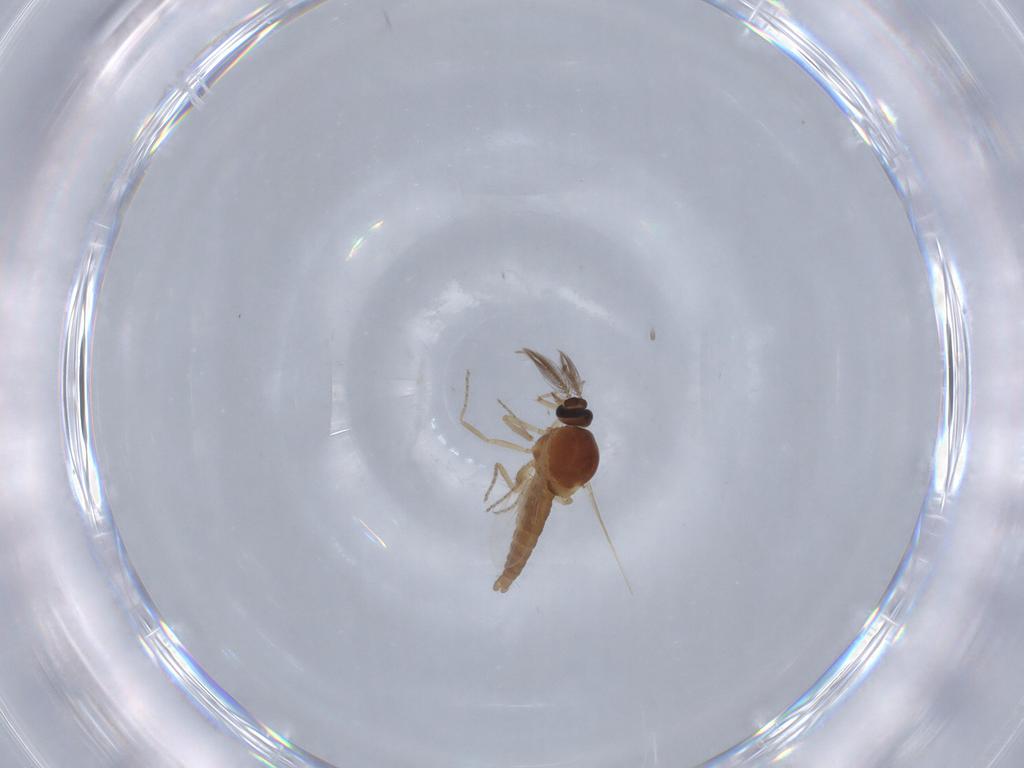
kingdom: Animalia
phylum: Arthropoda
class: Insecta
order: Diptera
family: Ceratopogonidae
